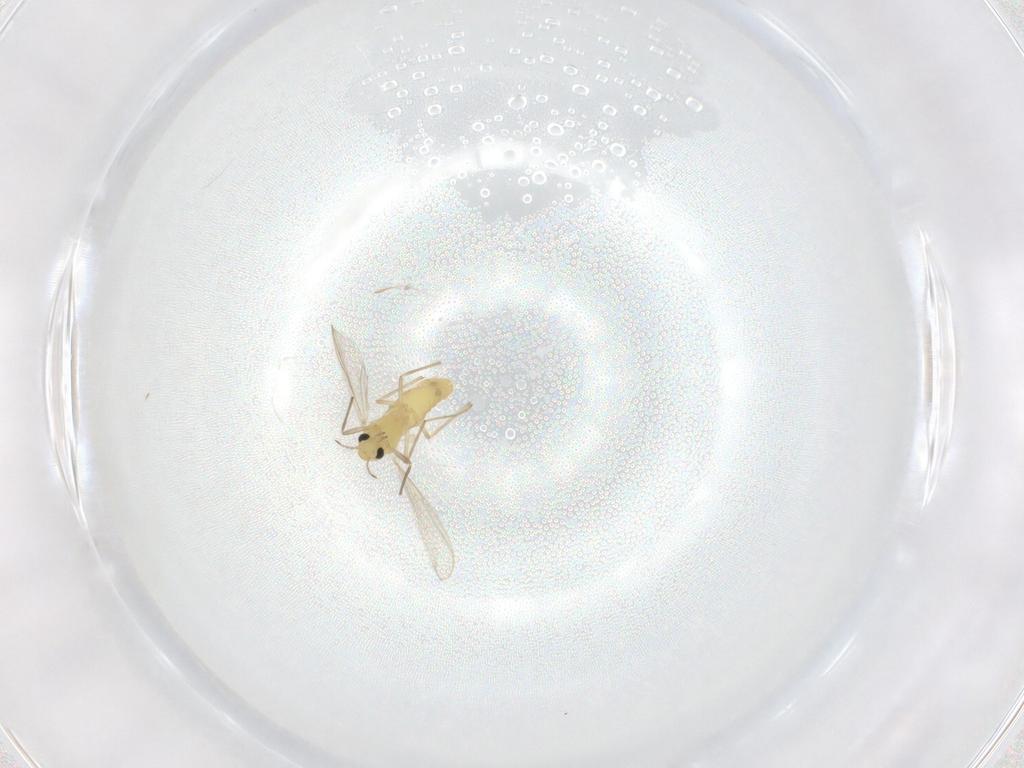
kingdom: Animalia
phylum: Arthropoda
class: Insecta
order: Diptera
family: Chironomidae
